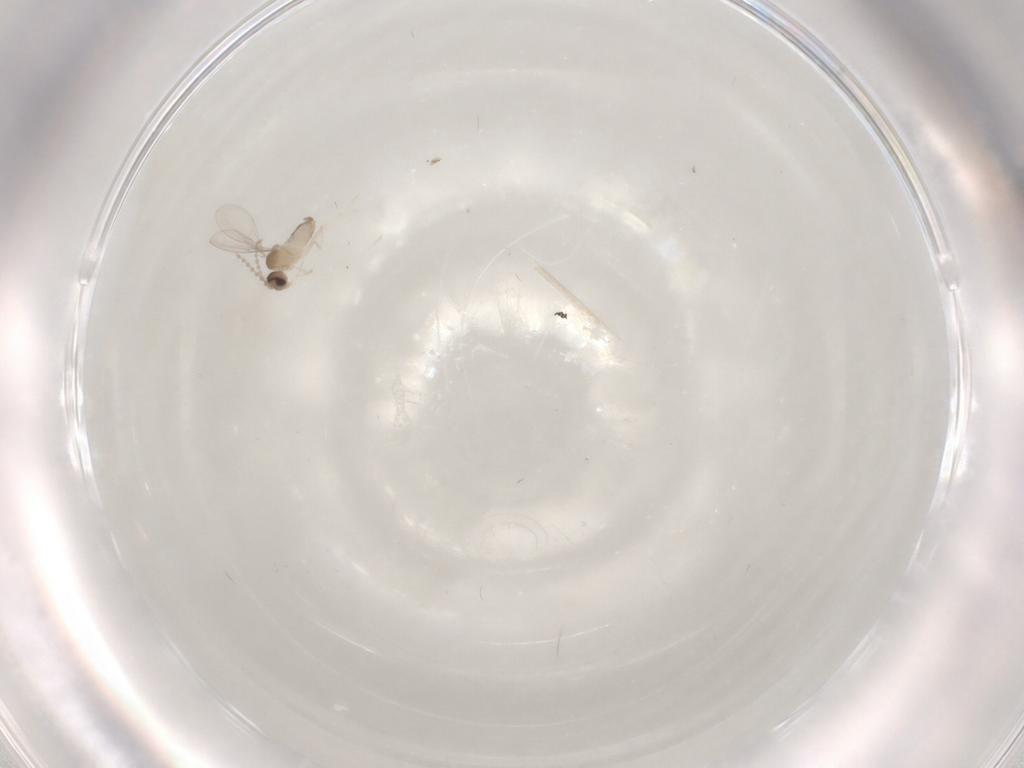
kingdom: Animalia
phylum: Arthropoda
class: Insecta
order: Diptera
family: Cecidomyiidae
